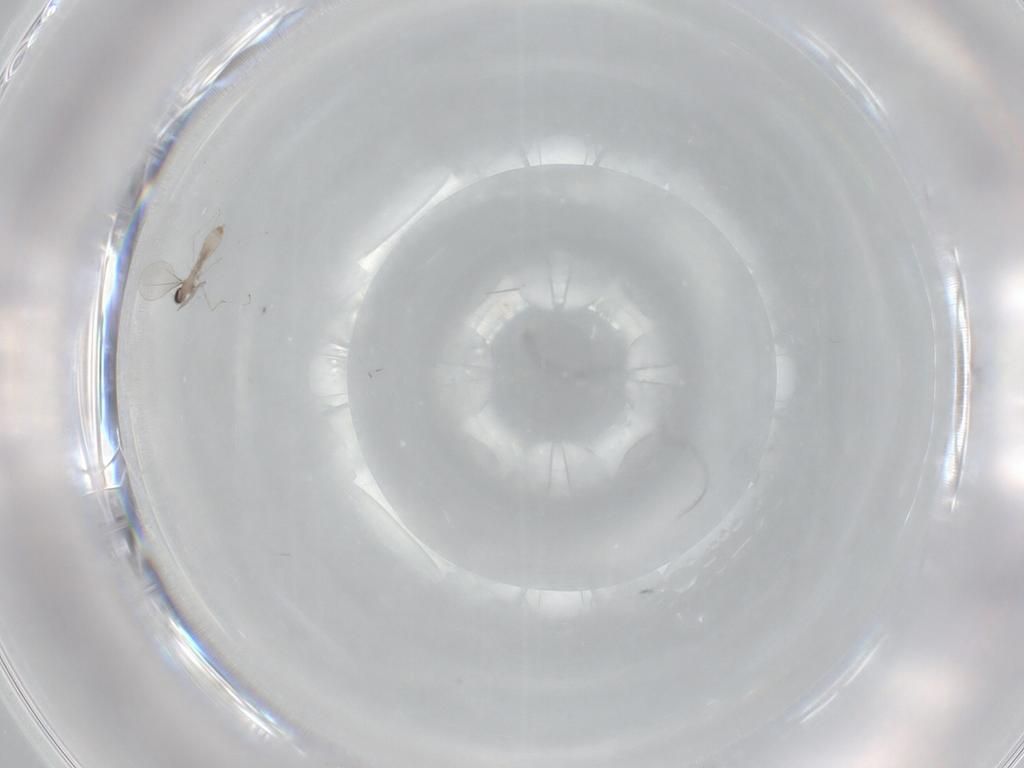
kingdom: Animalia
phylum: Arthropoda
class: Insecta
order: Diptera
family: Cecidomyiidae
